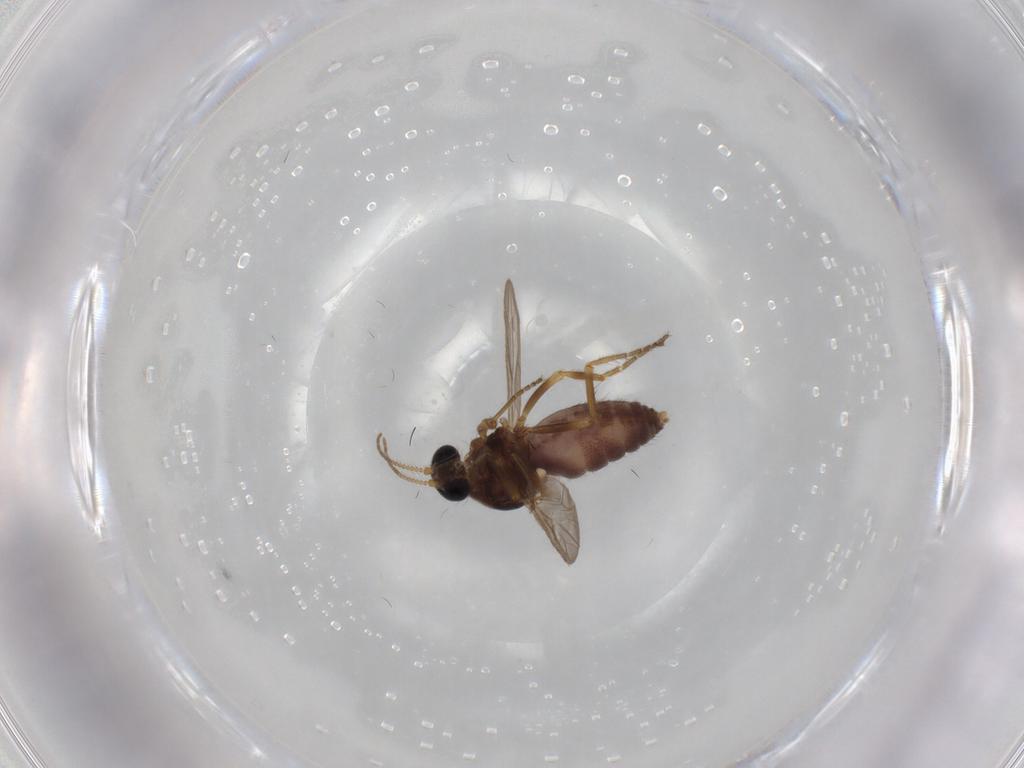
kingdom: Animalia
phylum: Arthropoda
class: Insecta
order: Diptera
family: Ceratopogonidae
